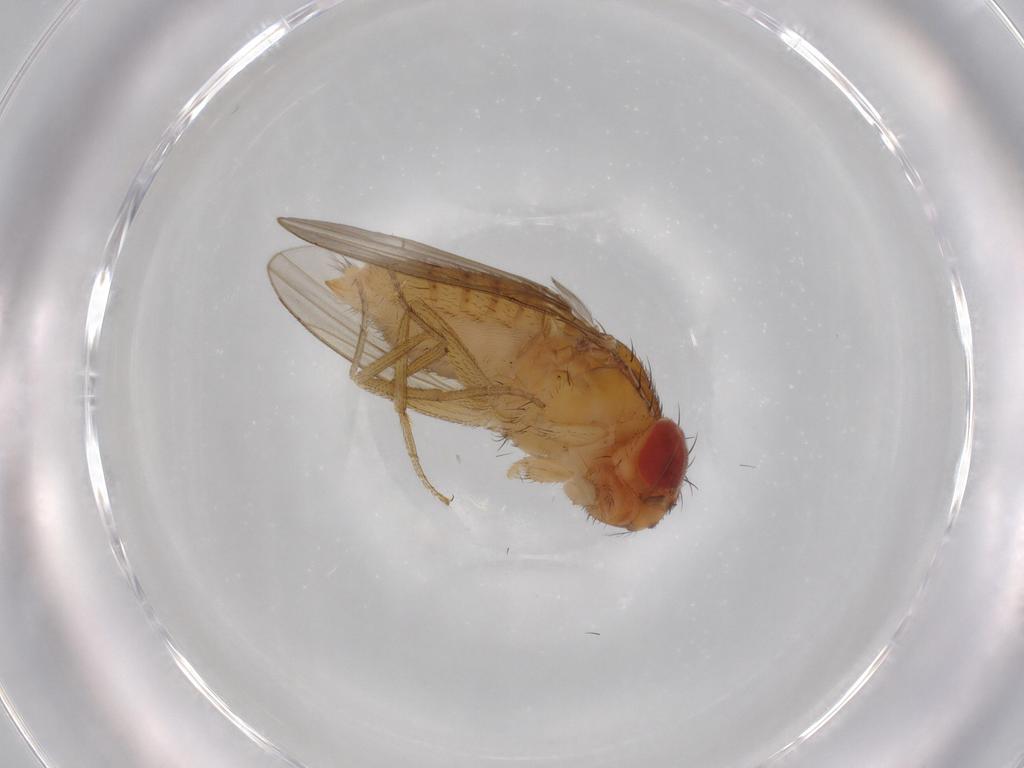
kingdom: Animalia
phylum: Arthropoda
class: Insecta
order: Diptera
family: Drosophilidae
